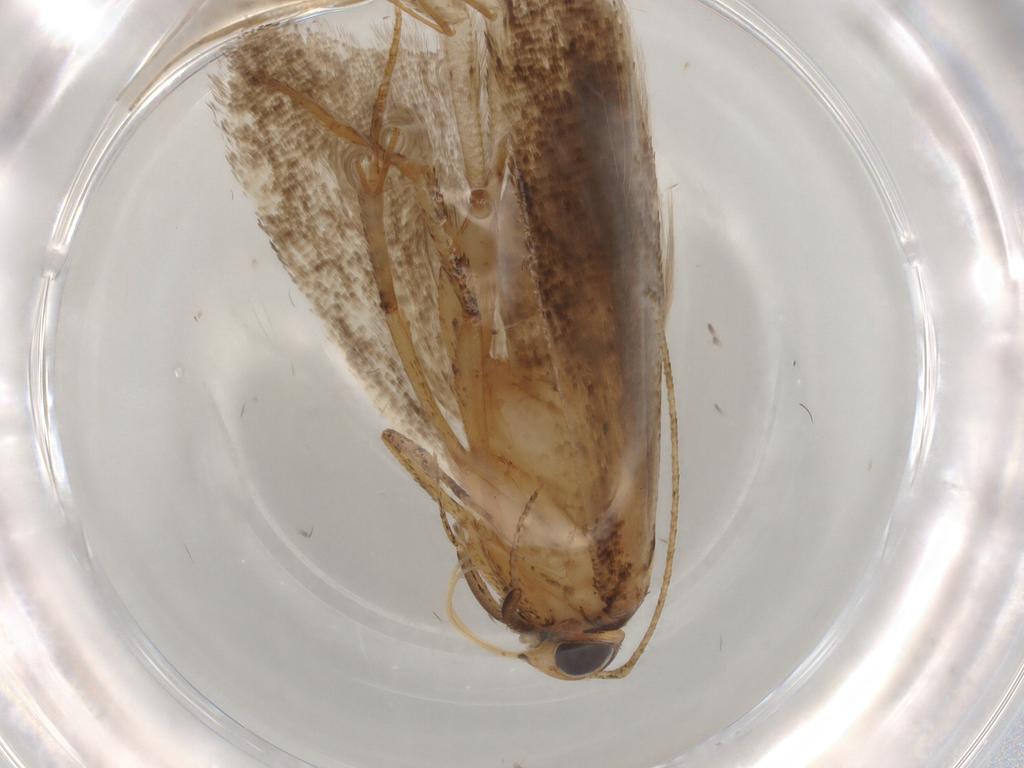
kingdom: Animalia
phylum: Arthropoda
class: Insecta
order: Lepidoptera
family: Gelechiidae
